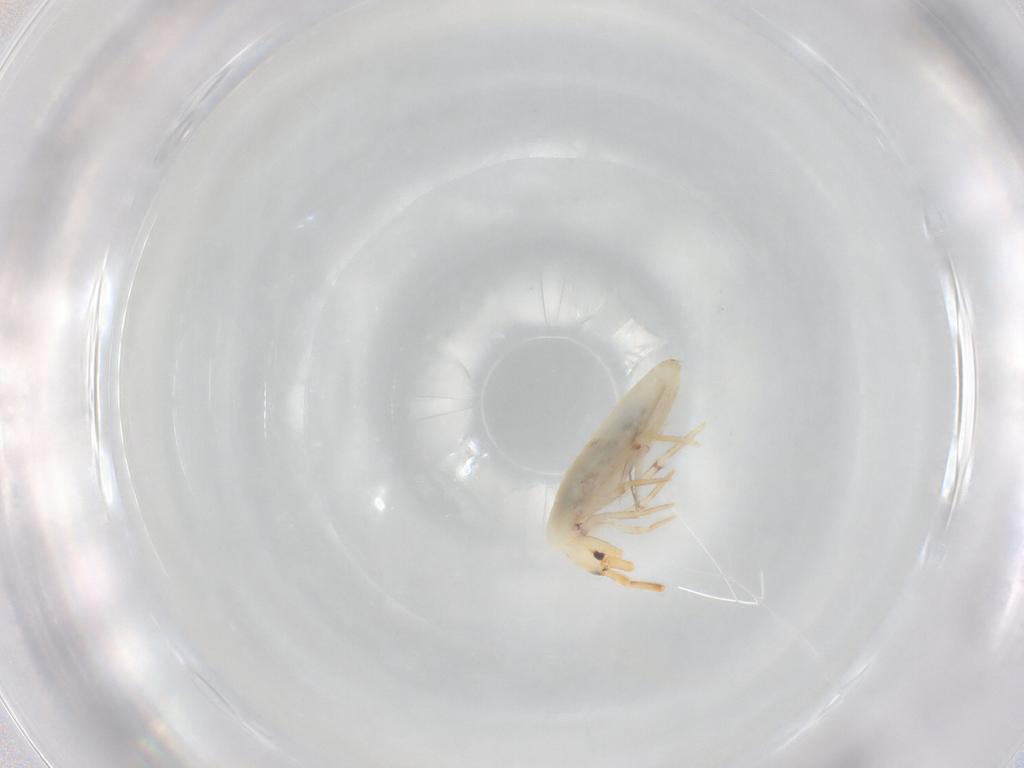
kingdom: Animalia
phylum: Arthropoda
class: Collembola
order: Poduromorpha
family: Hypogastruridae
